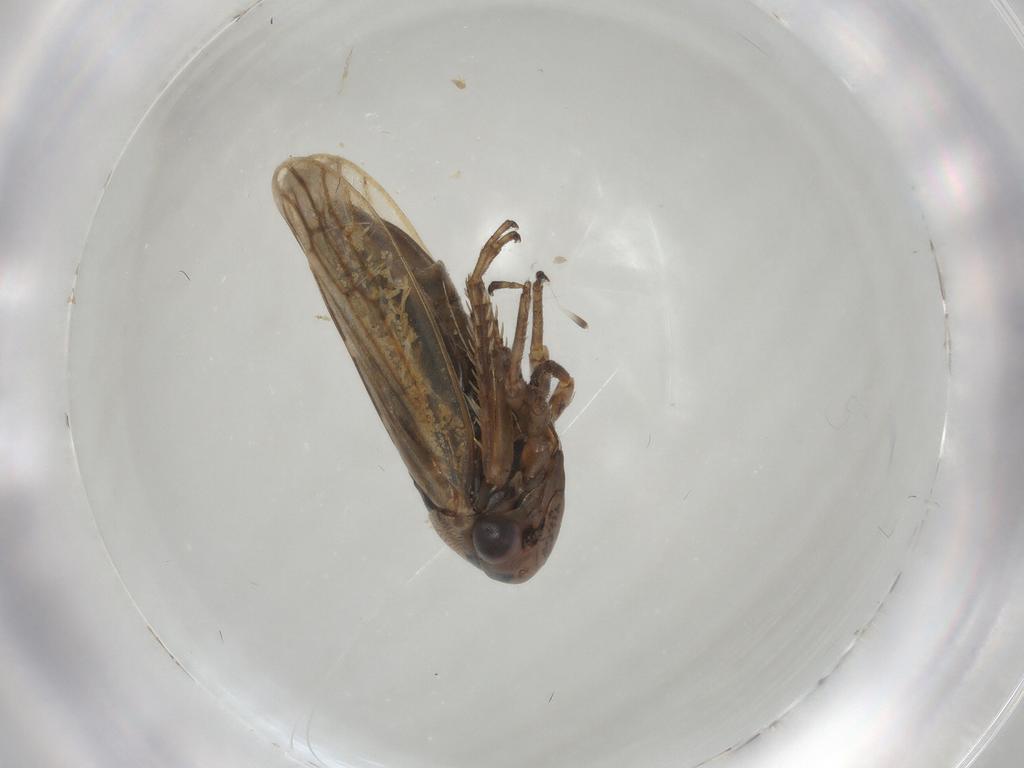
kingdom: Animalia
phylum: Arthropoda
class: Insecta
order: Hemiptera
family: Cicadellidae
